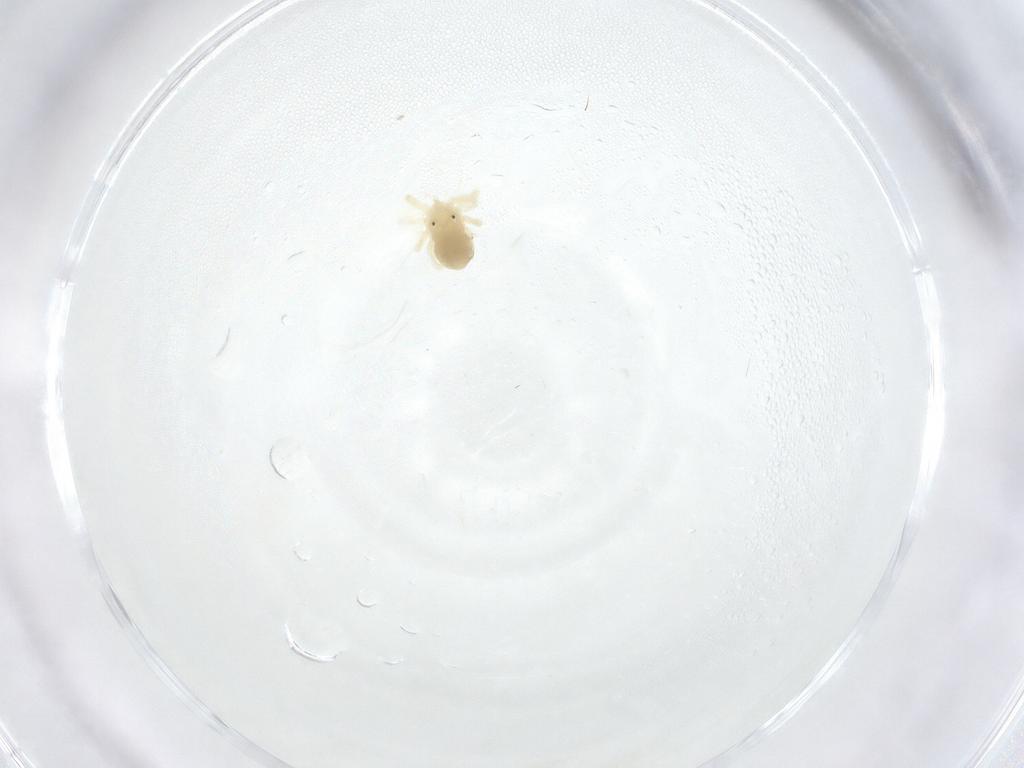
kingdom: Animalia
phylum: Arthropoda
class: Arachnida
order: Trombidiformes
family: Anystidae
